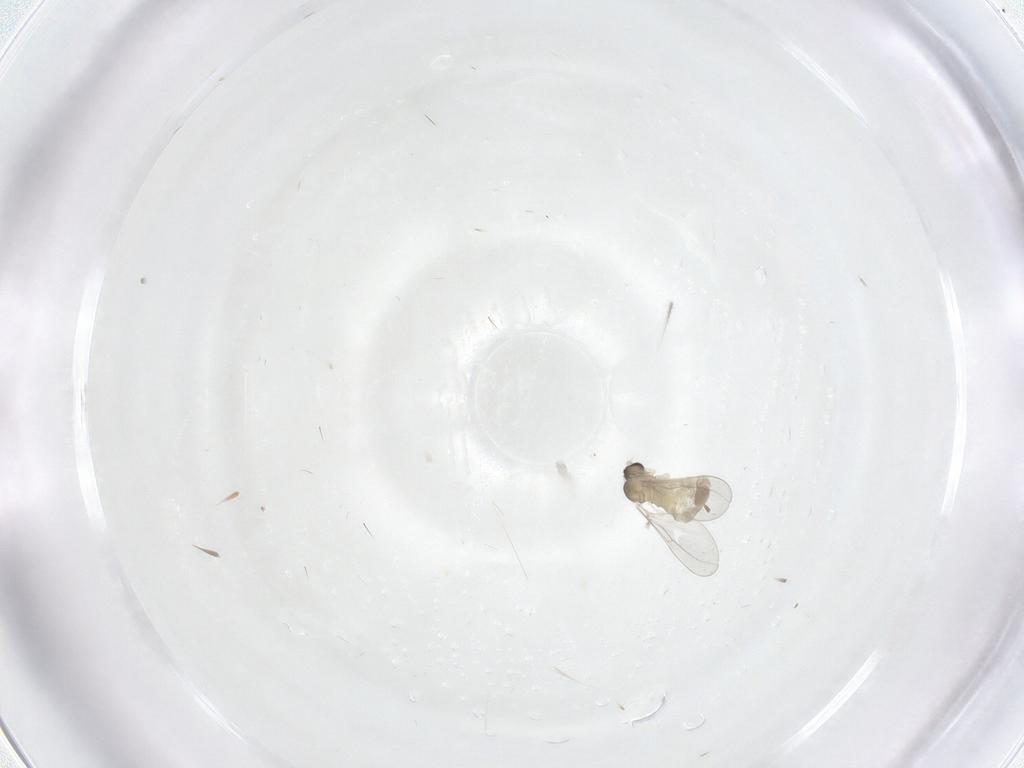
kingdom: Animalia
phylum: Arthropoda
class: Insecta
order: Diptera
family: Cecidomyiidae
